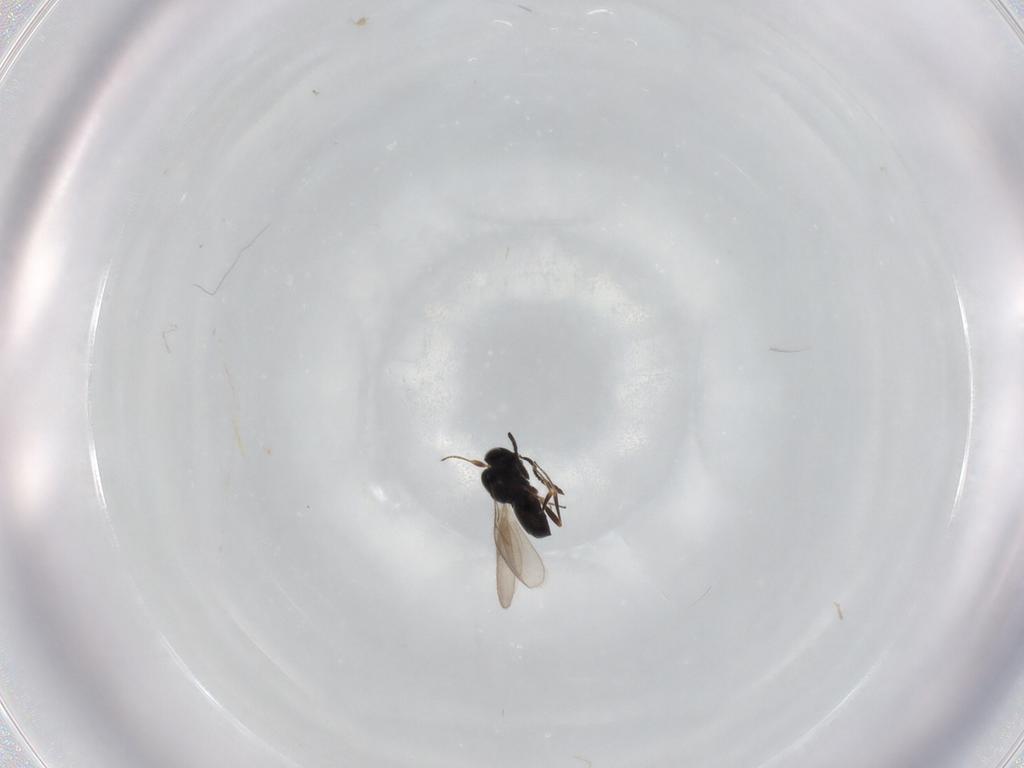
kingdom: Animalia
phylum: Arthropoda
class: Insecta
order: Hymenoptera
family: Scelionidae
